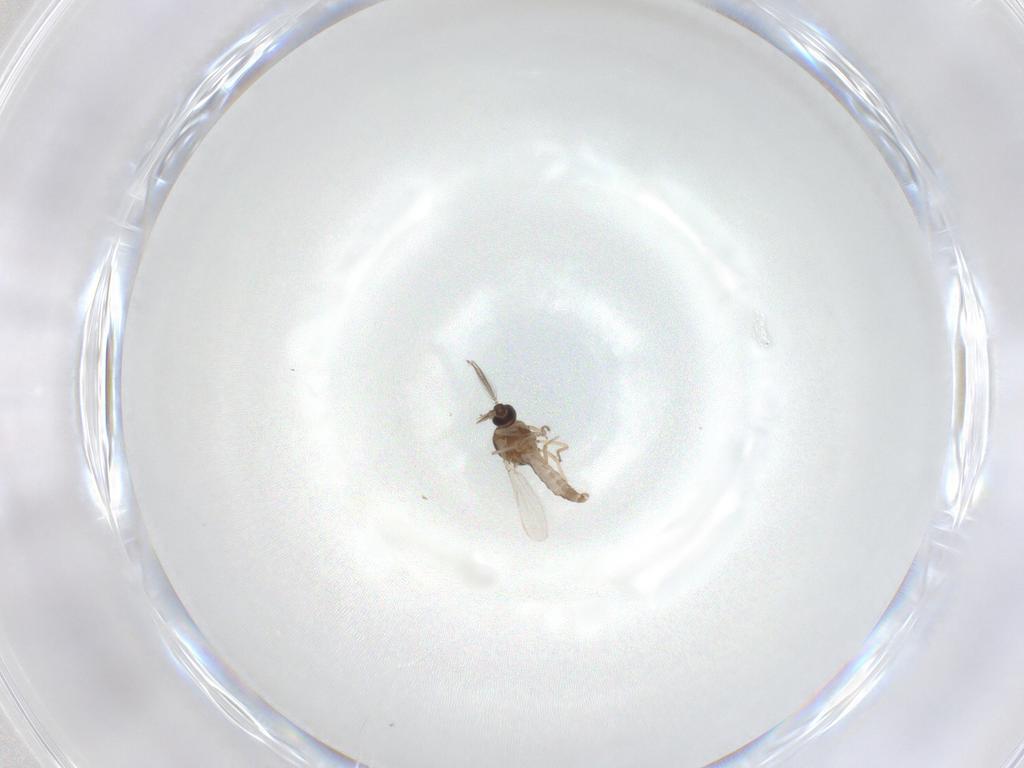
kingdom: Animalia
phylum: Arthropoda
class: Insecta
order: Diptera
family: Ceratopogonidae
